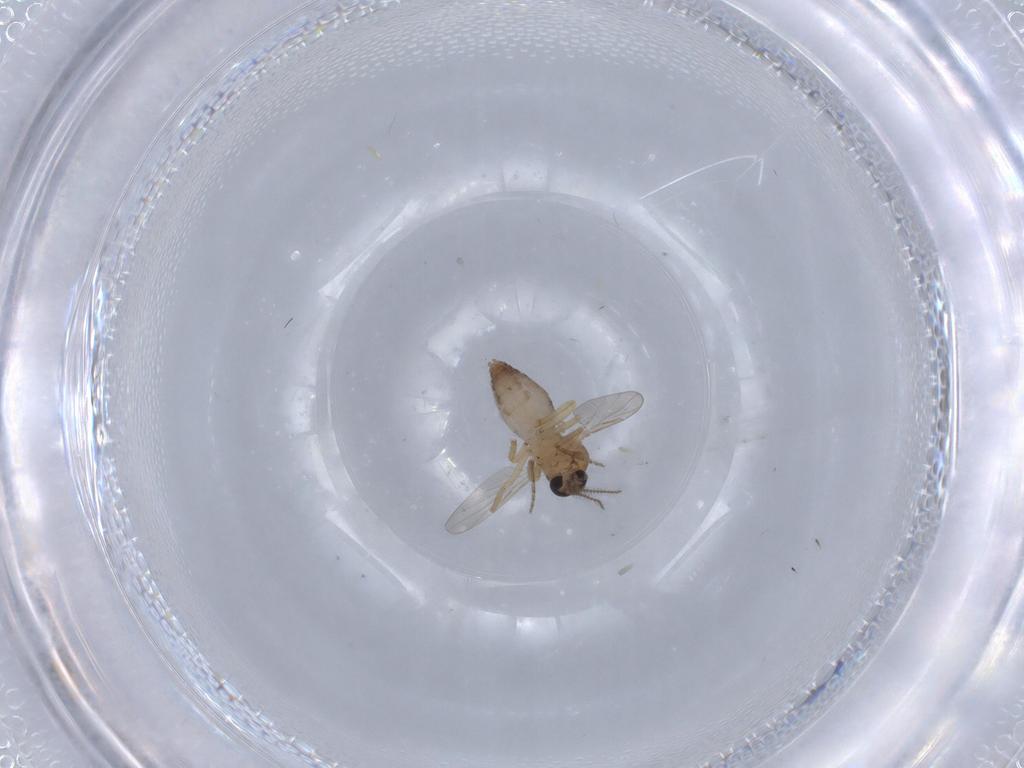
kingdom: Animalia
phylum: Arthropoda
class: Insecta
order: Diptera
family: Ceratopogonidae
